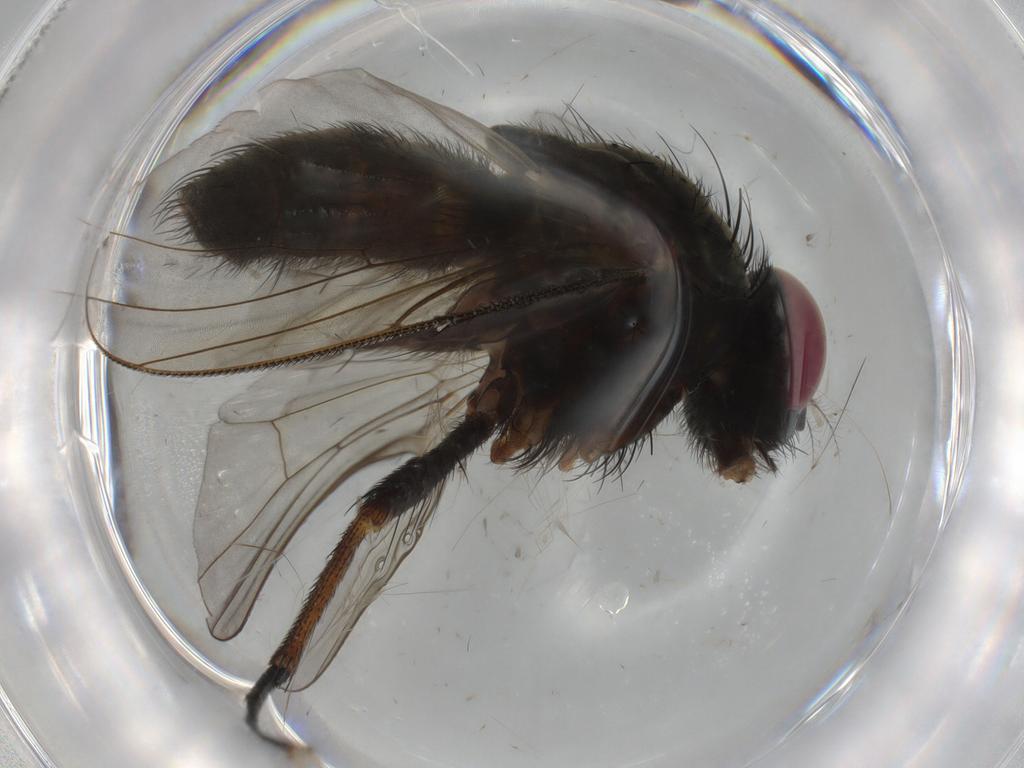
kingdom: Animalia
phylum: Arthropoda
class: Insecta
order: Diptera
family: Muscidae
